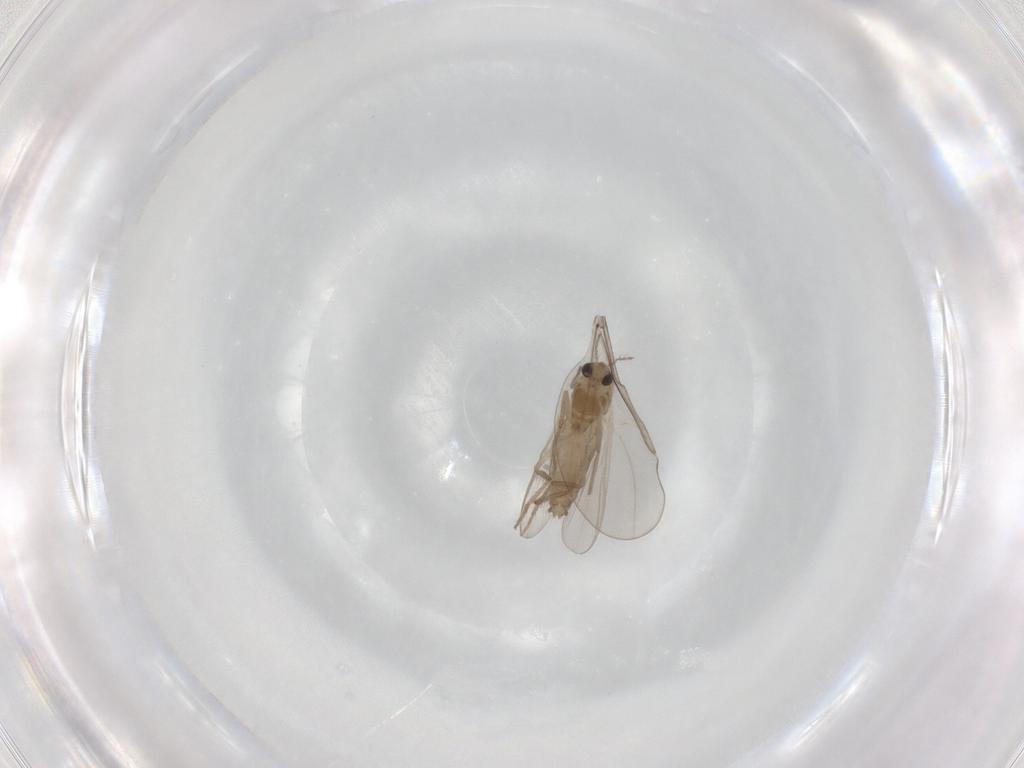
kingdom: Animalia
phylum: Arthropoda
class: Insecta
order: Diptera
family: Chironomidae
